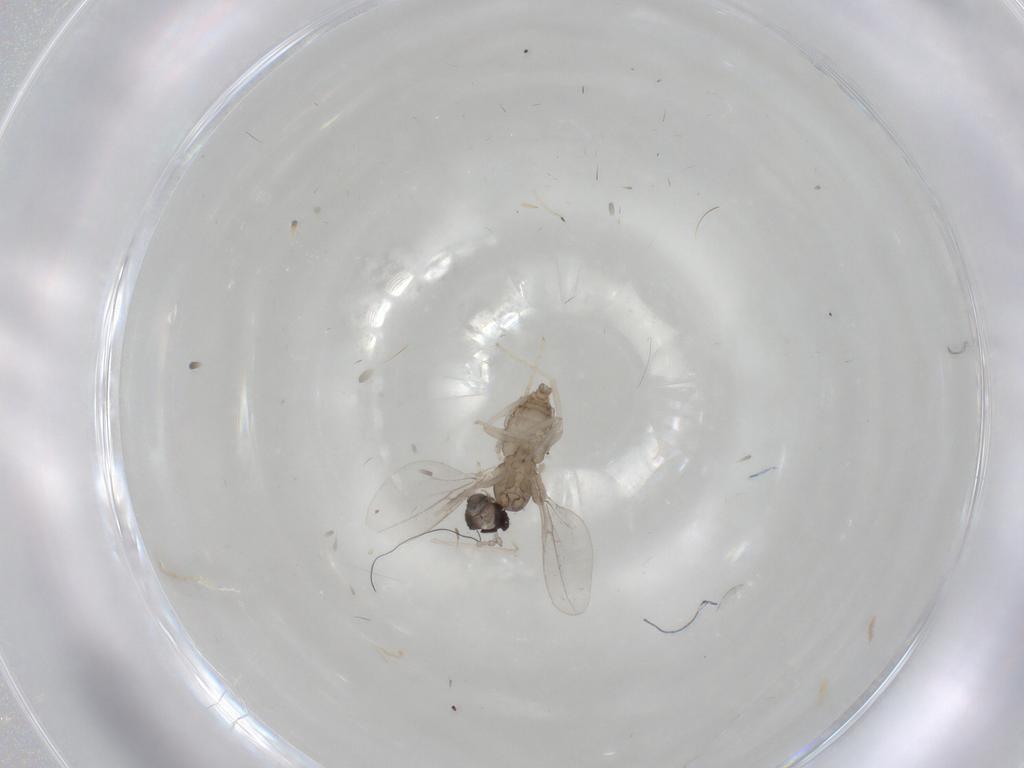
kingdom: Animalia
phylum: Arthropoda
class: Insecta
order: Diptera
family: Cecidomyiidae
